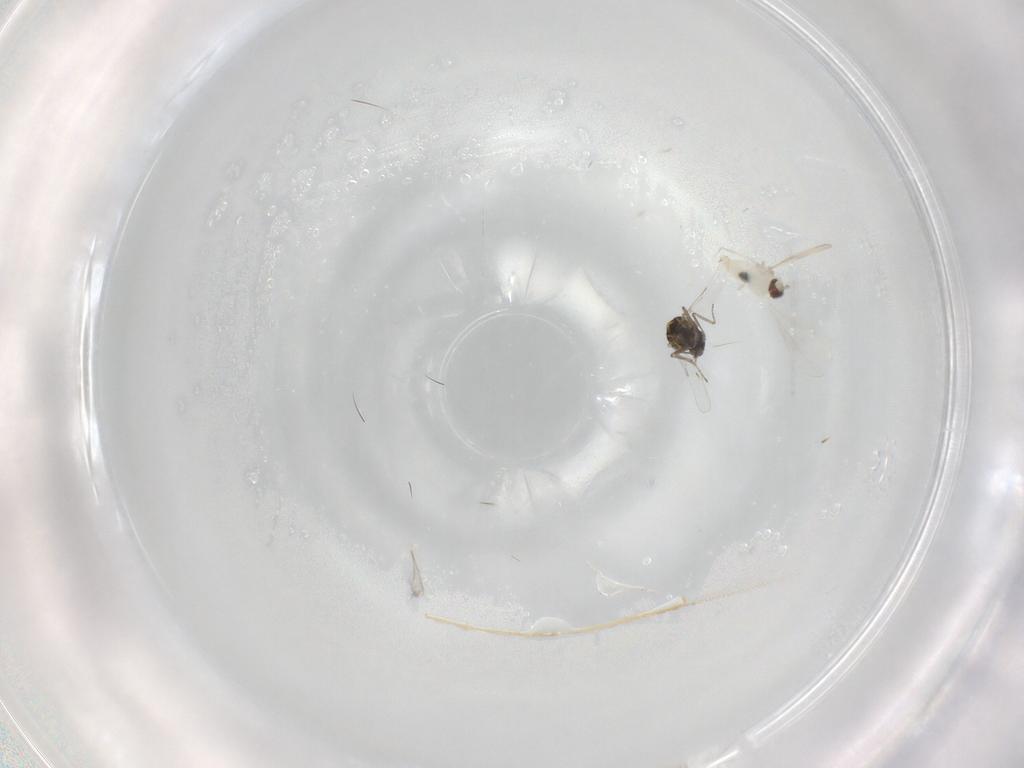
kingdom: Animalia
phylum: Arthropoda
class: Insecta
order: Diptera
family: Ceratopogonidae
